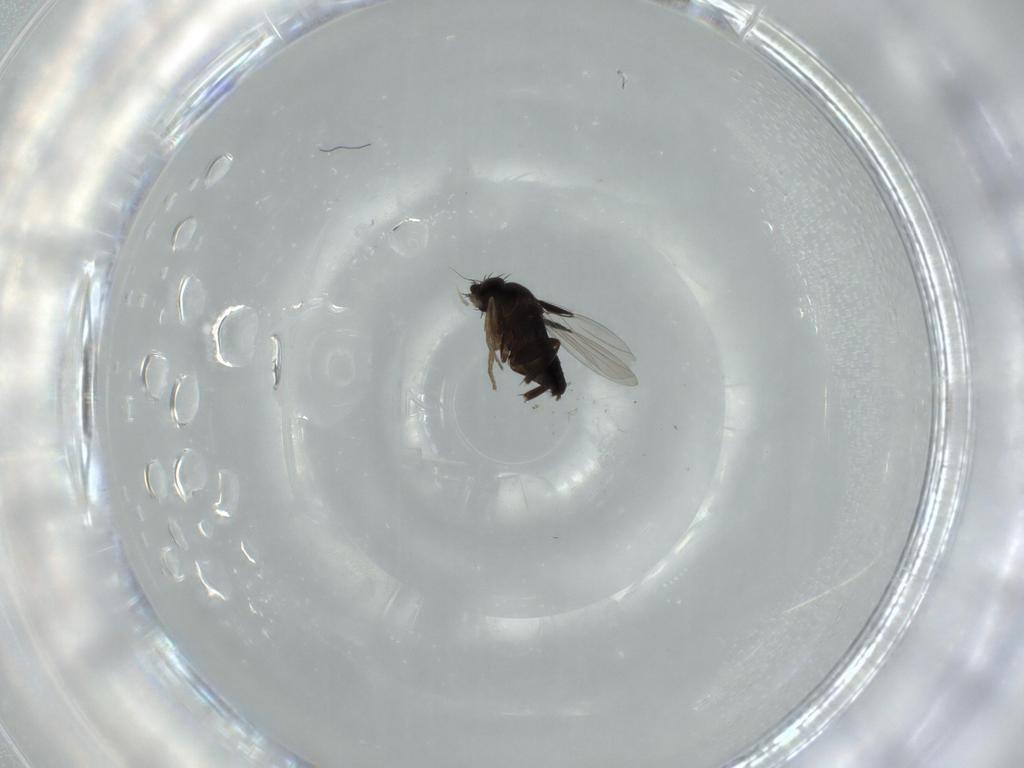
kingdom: Animalia
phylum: Arthropoda
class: Insecta
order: Diptera
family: Phoridae
